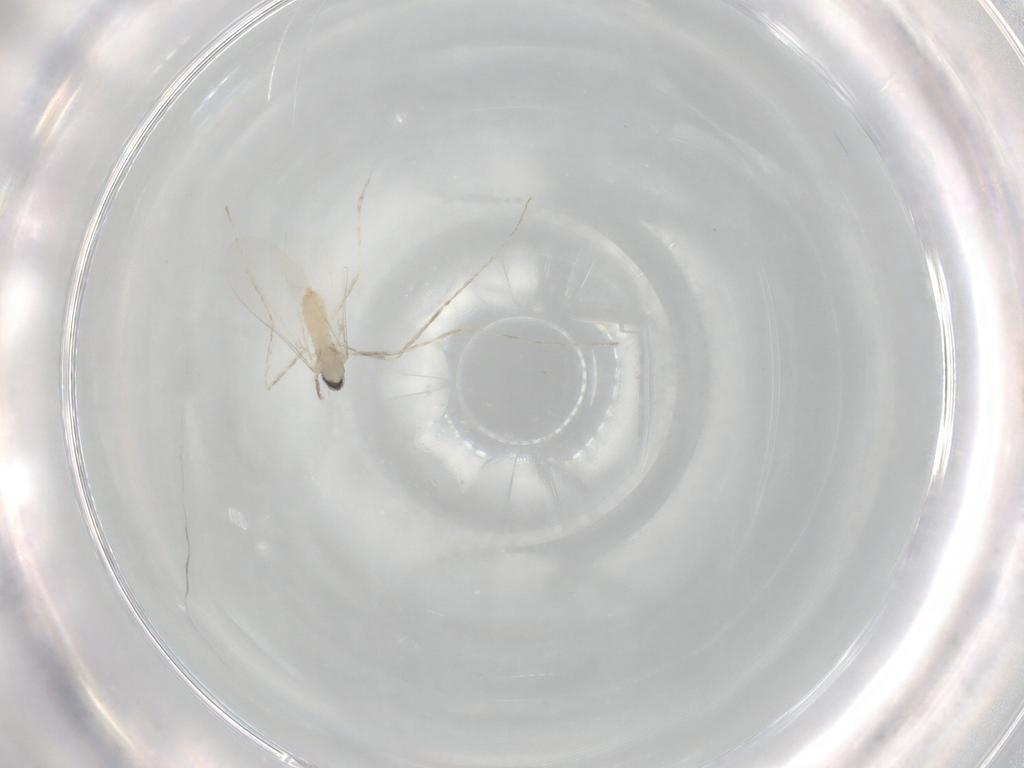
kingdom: Animalia
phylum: Arthropoda
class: Insecta
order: Diptera
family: Cecidomyiidae
